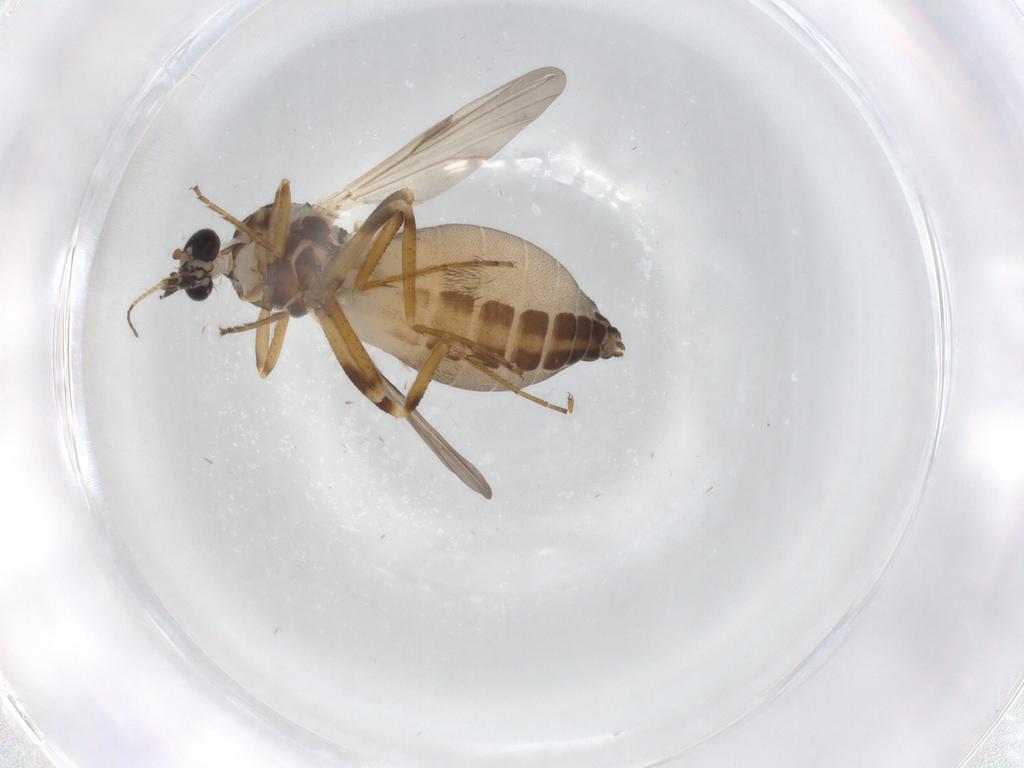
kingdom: Animalia
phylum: Arthropoda
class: Insecta
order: Diptera
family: Ceratopogonidae
